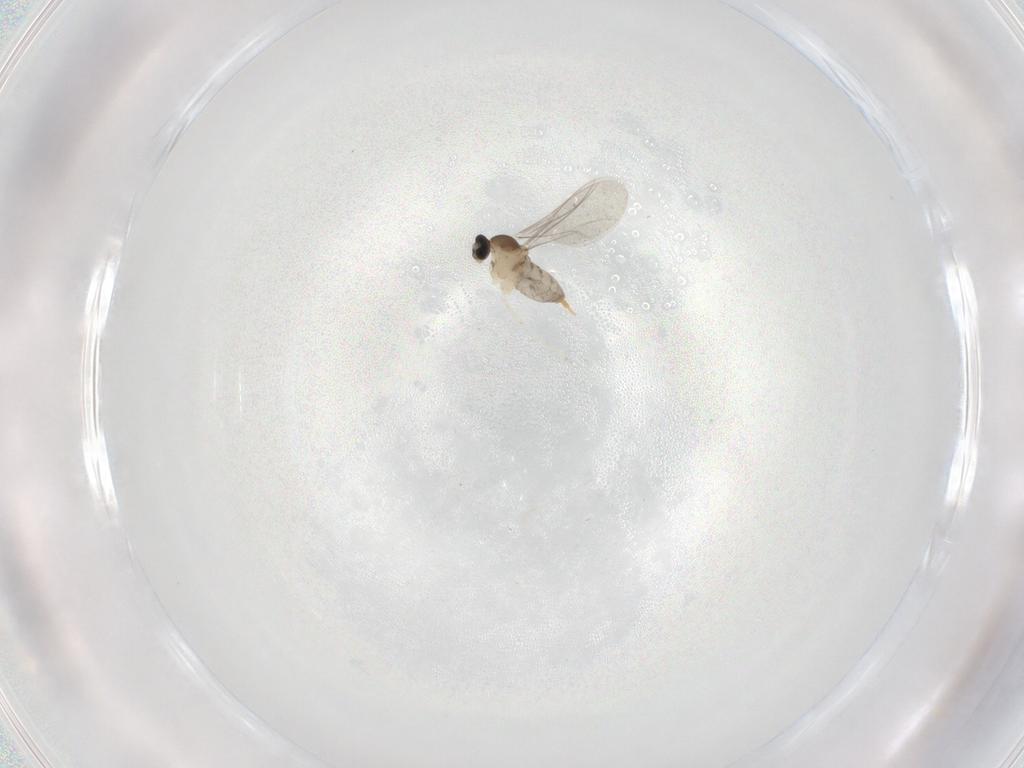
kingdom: Animalia
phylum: Arthropoda
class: Insecta
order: Diptera
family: Cecidomyiidae
